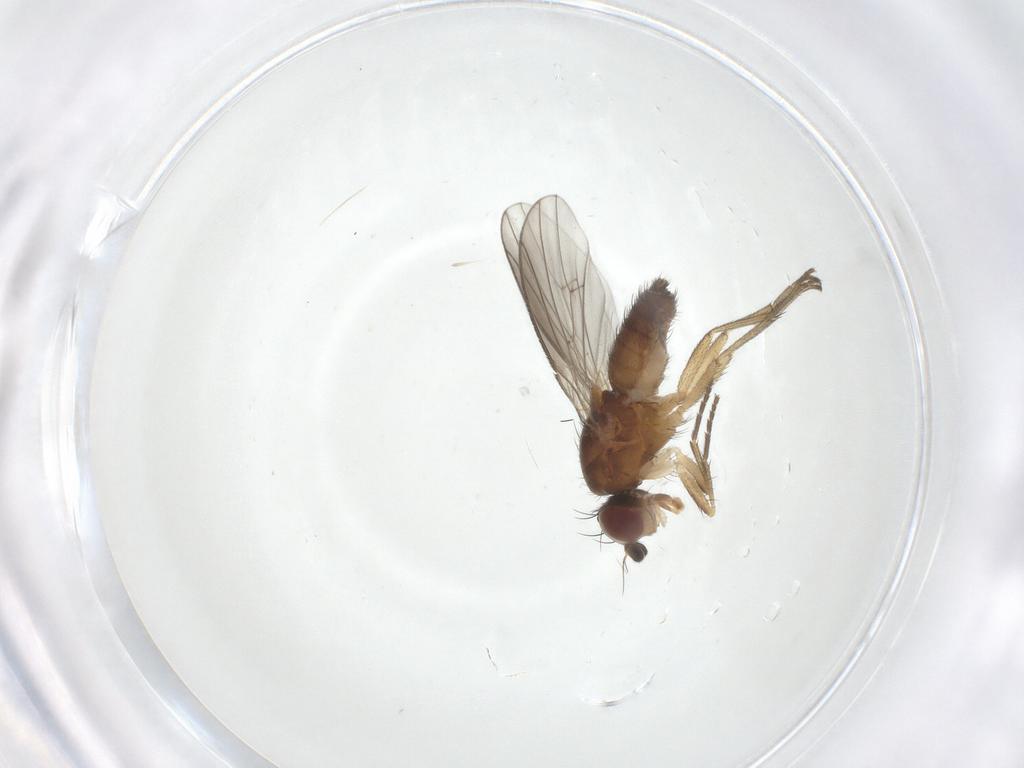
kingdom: Animalia
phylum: Arthropoda
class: Insecta
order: Diptera
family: Heleomyzidae
